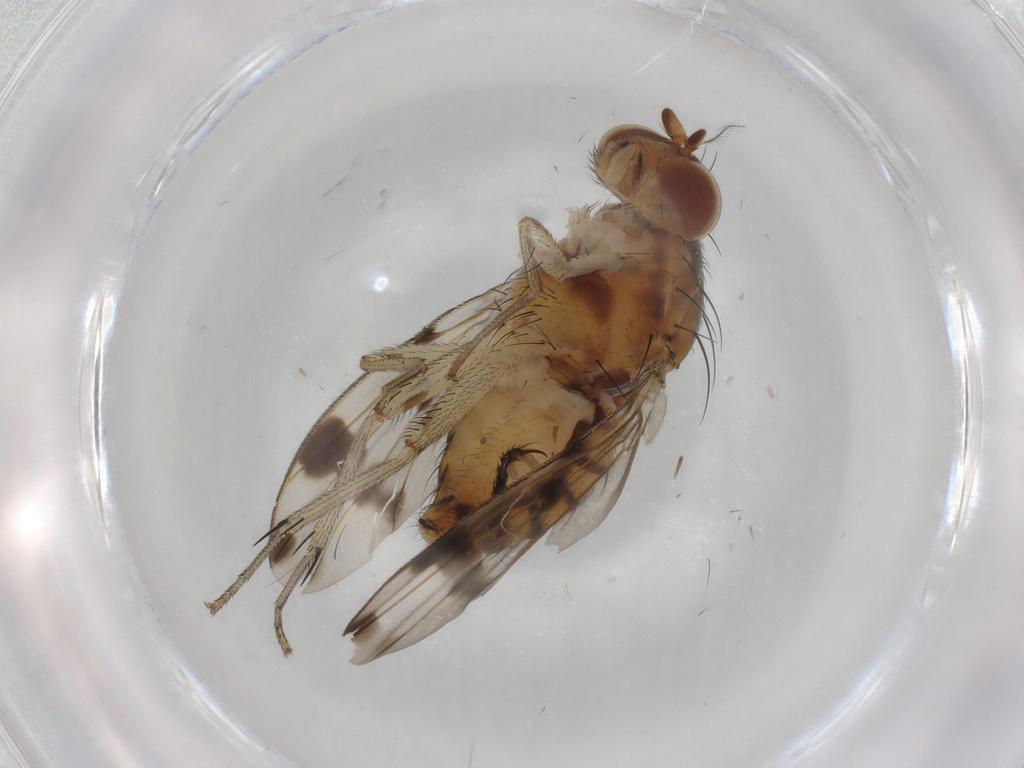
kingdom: Animalia
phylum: Arthropoda
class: Insecta
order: Diptera
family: Lauxaniidae
